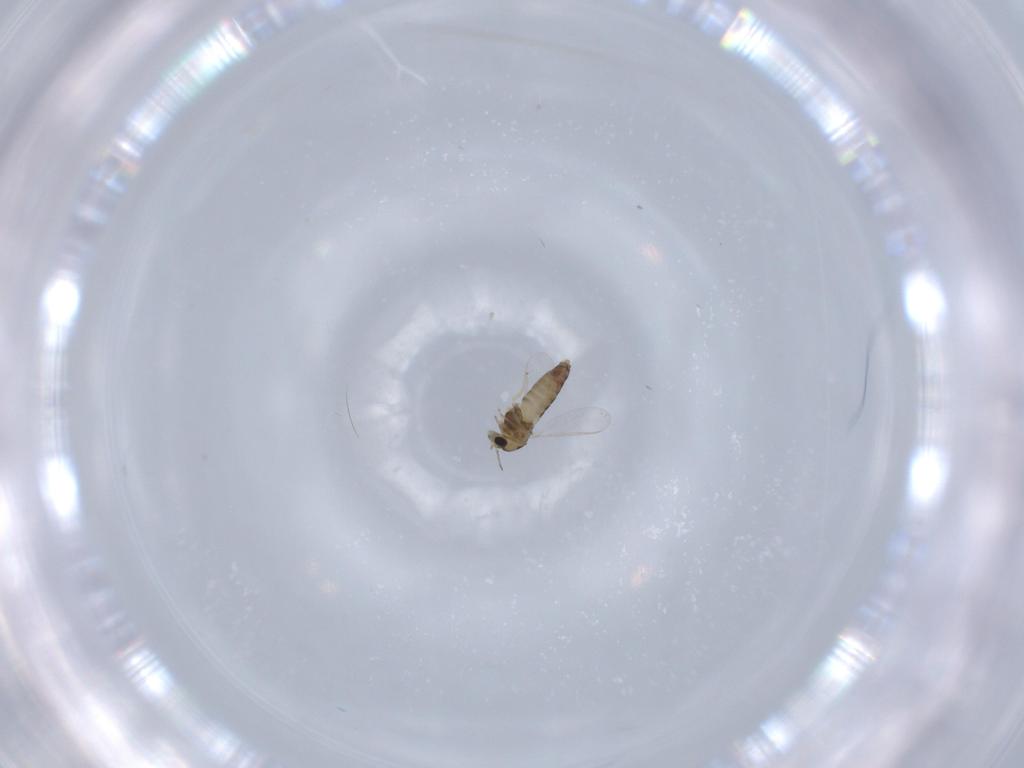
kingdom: Animalia
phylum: Arthropoda
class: Insecta
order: Diptera
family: Chironomidae
